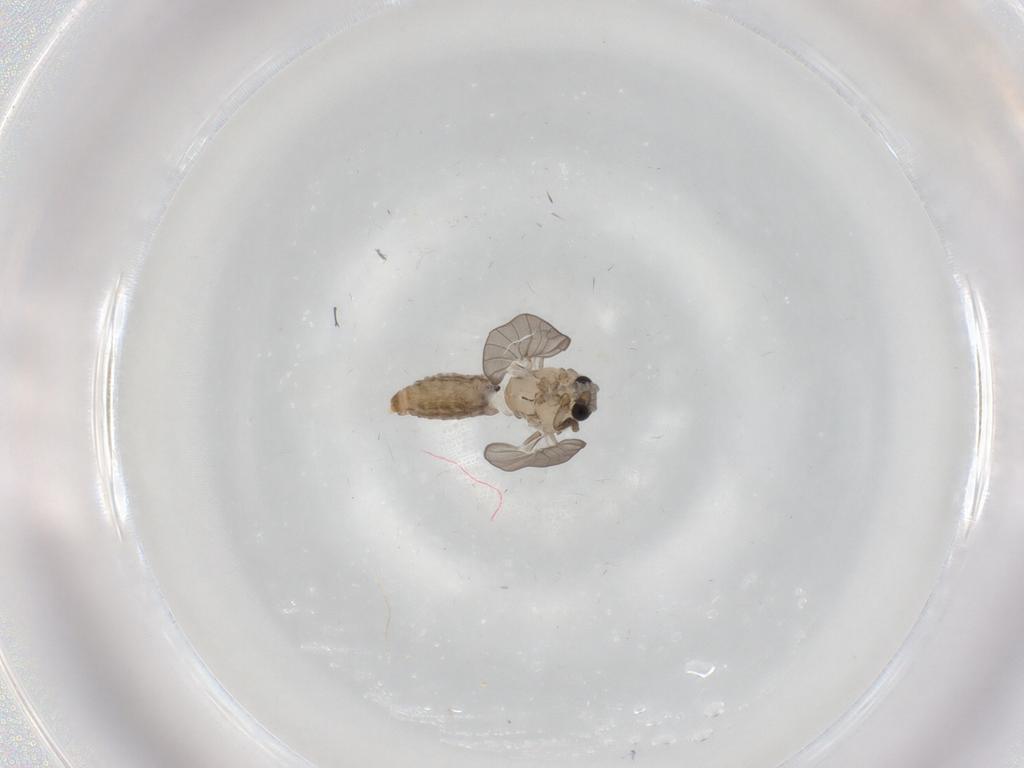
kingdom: Animalia
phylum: Arthropoda
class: Insecta
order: Diptera
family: Psychodidae
